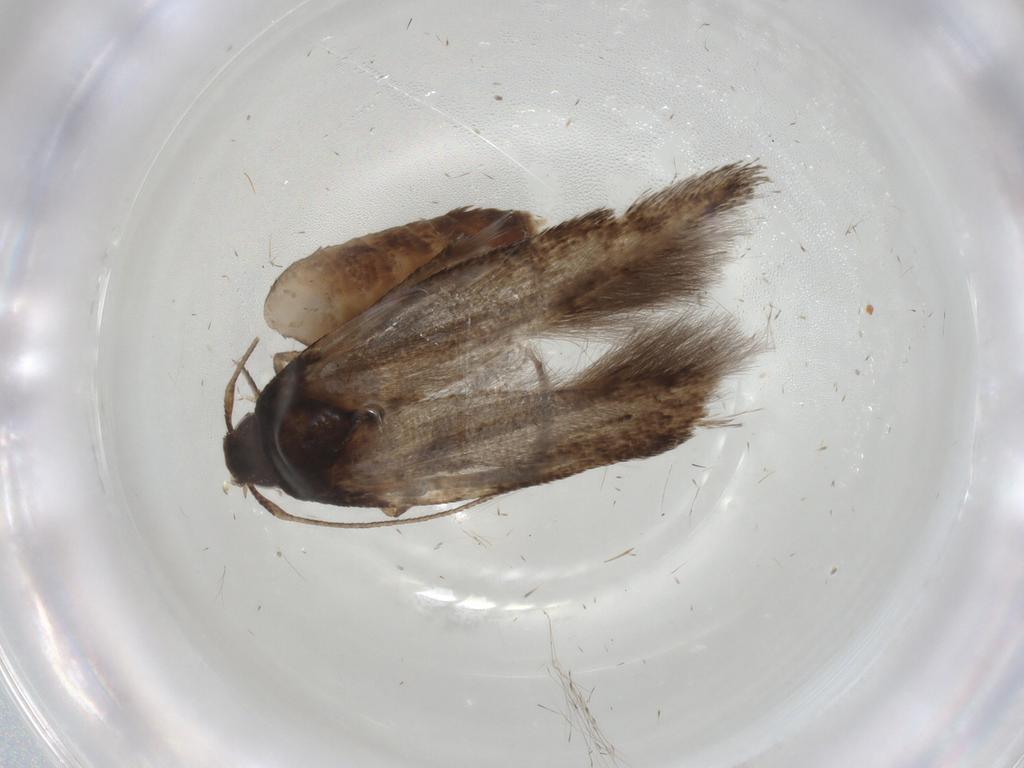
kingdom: Animalia
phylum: Arthropoda
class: Insecta
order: Lepidoptera
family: Cosmopterigidae
